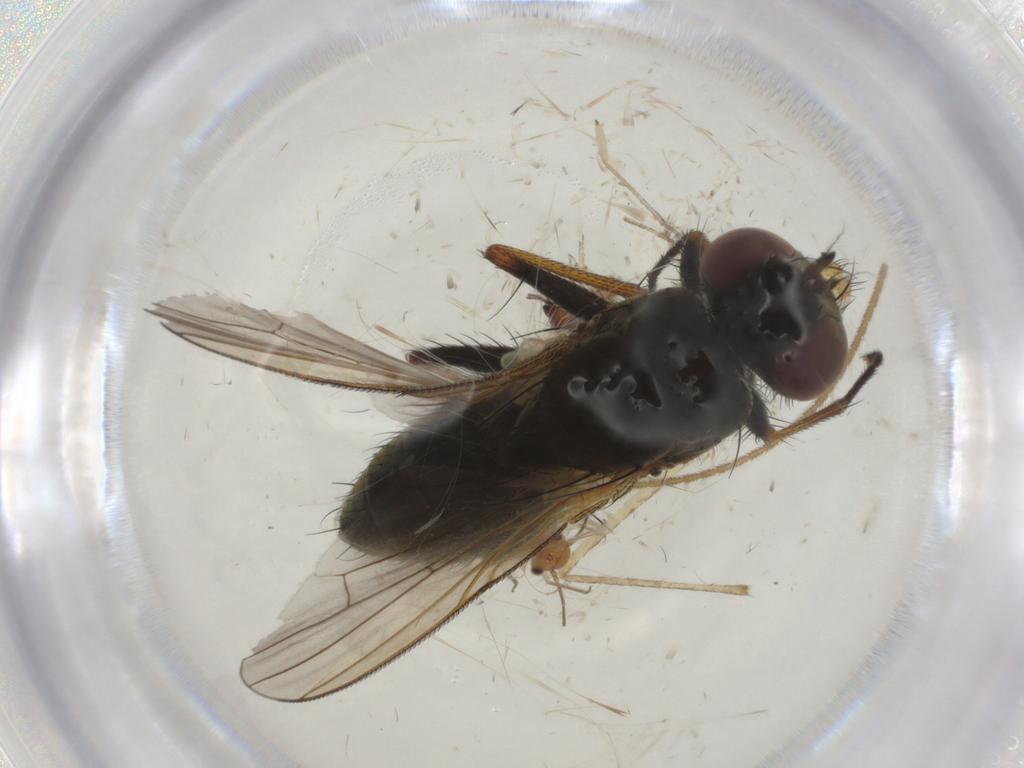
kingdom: Animalia
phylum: Arthropoda
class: Insecta
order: Diptera
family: Muscidae
